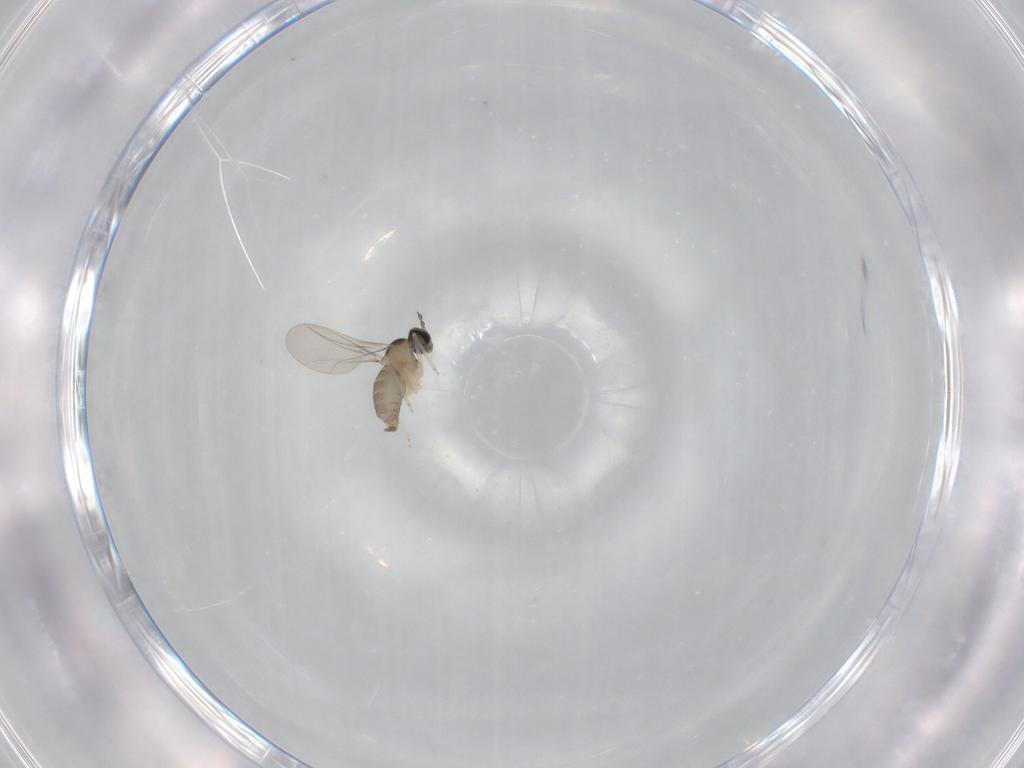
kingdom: Animalia
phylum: Arthropoda
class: Insecta
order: Diptera
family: Cecidomyiidae
